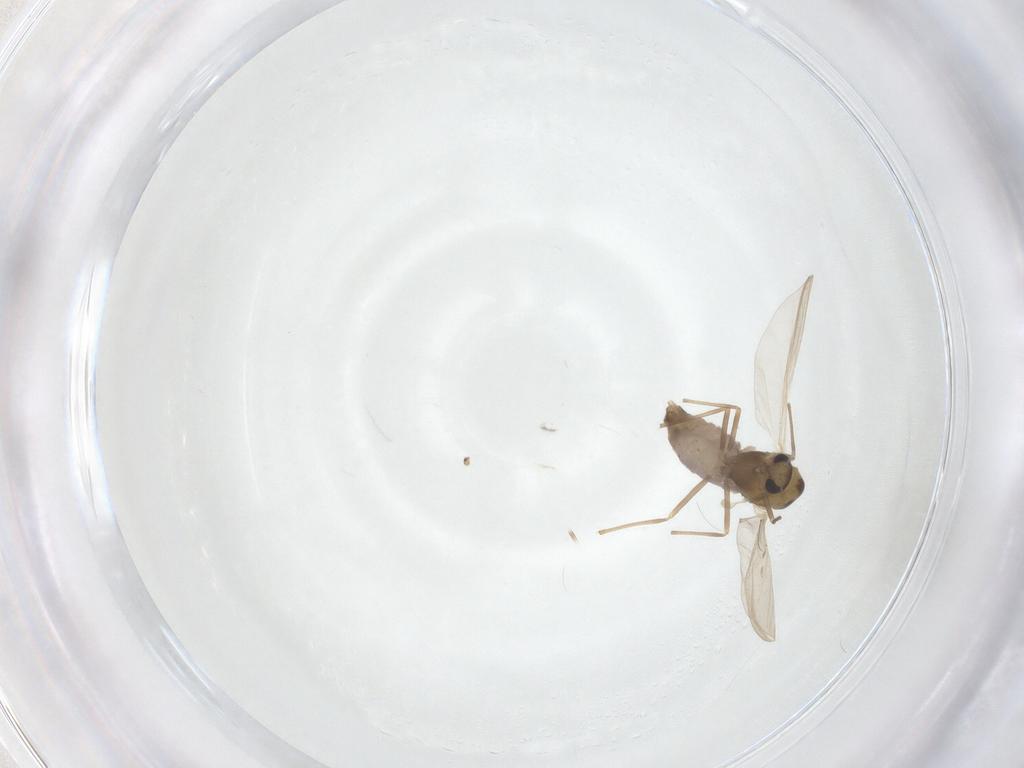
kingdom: Animalia
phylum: Arthropoda
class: Insecta
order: Diptera
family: Chironomidae
